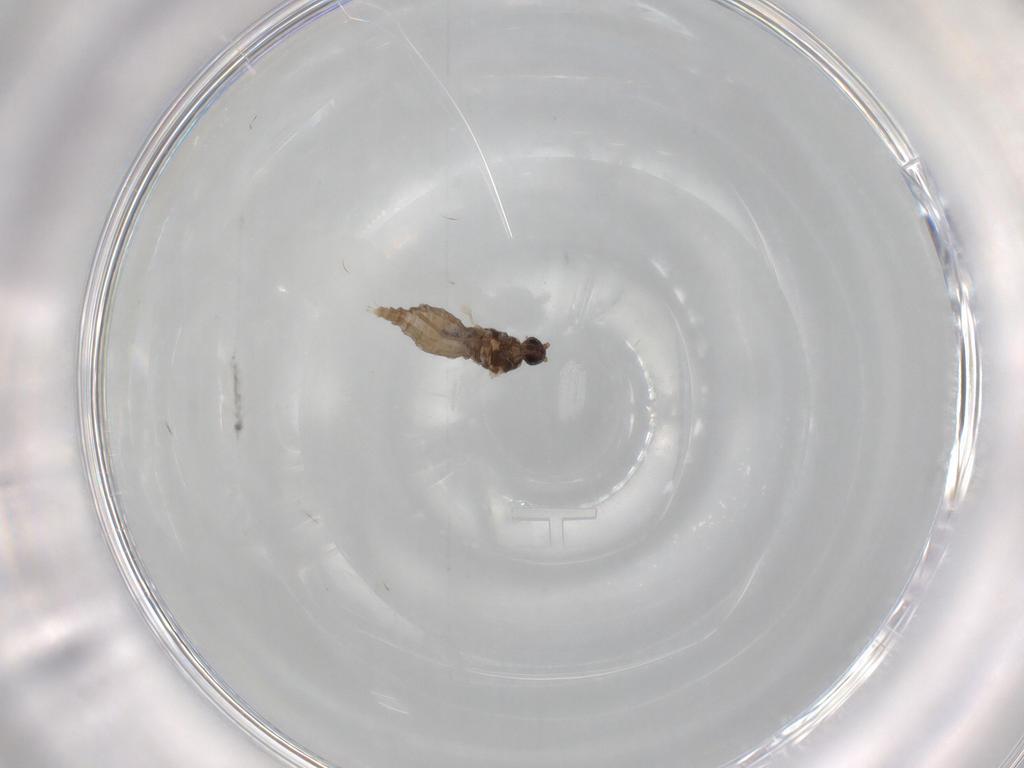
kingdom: Animalia
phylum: Arthropoda
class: Insecta
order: Diptera
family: Cecidomyiidae
